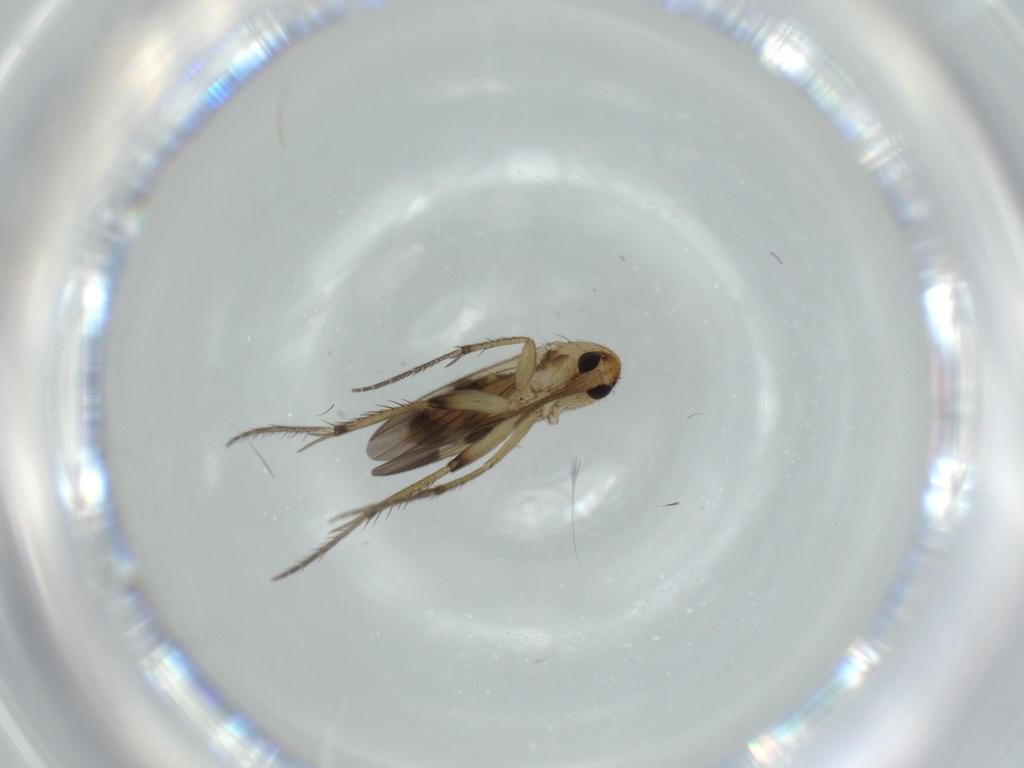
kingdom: Animalia
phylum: Arthropoda
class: Insecta
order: Diptera
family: Mycetophilidae
